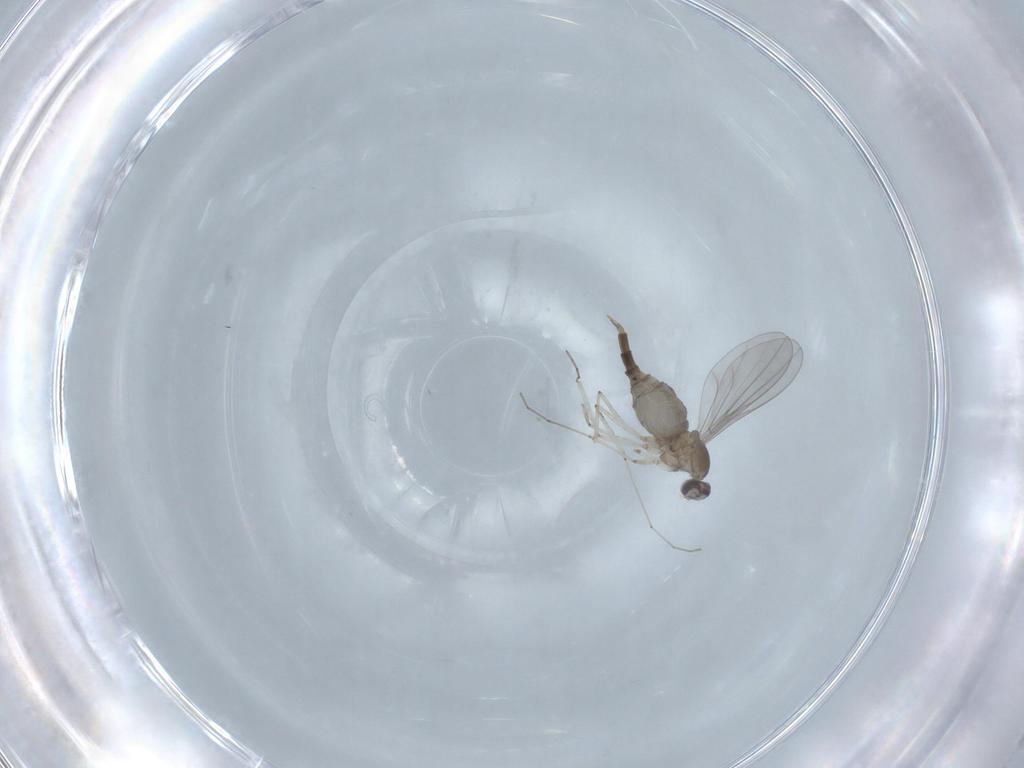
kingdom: Animalia
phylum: Arthropoda
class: Insecta
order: Diptera
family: Cecidomyiidae
